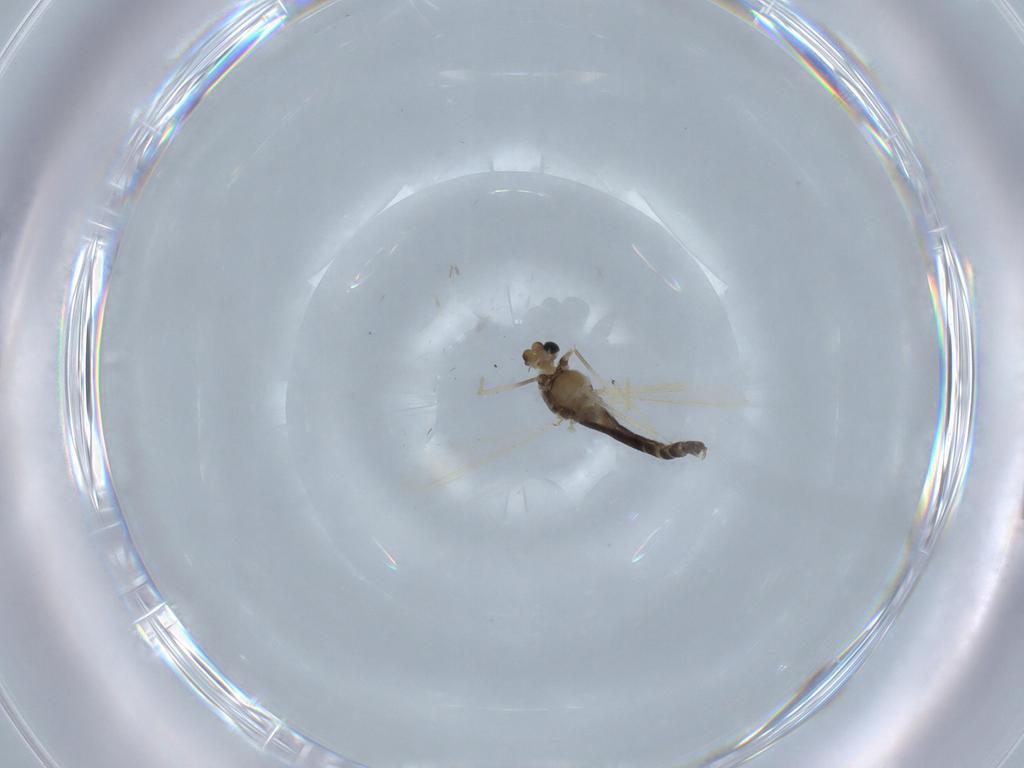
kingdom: Animalia
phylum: Arthropoda
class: Insecta
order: Diptera
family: Chironomidae
